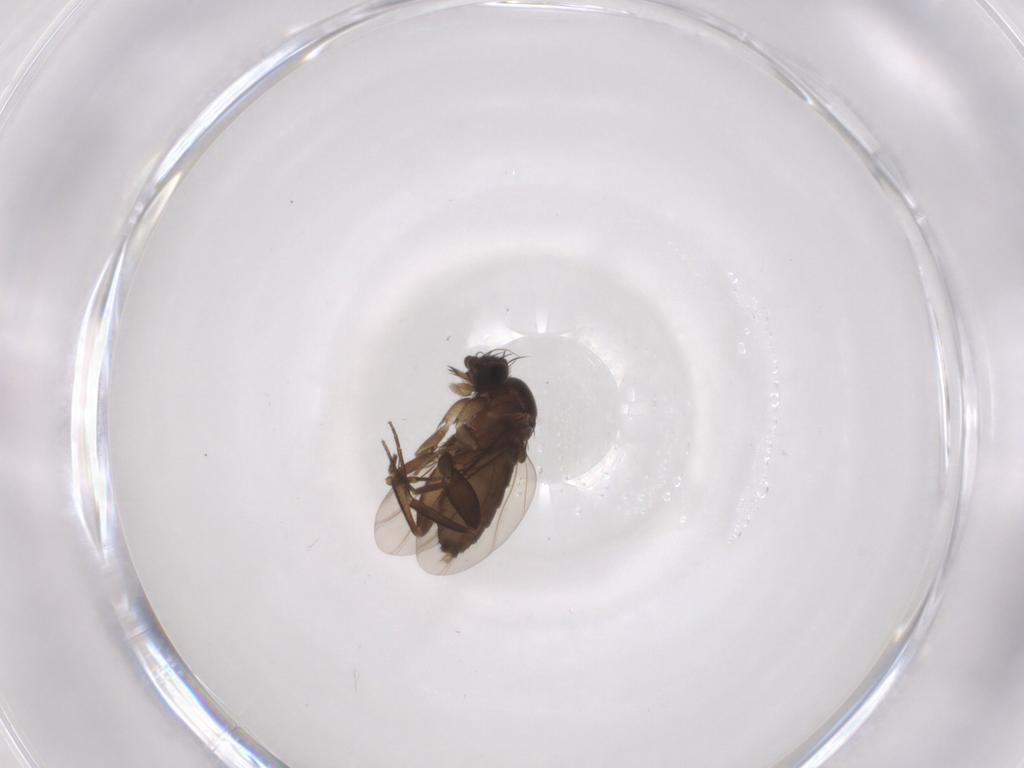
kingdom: Animalia
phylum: Arthropoda
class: Insecta
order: Diptera
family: Phoridae
